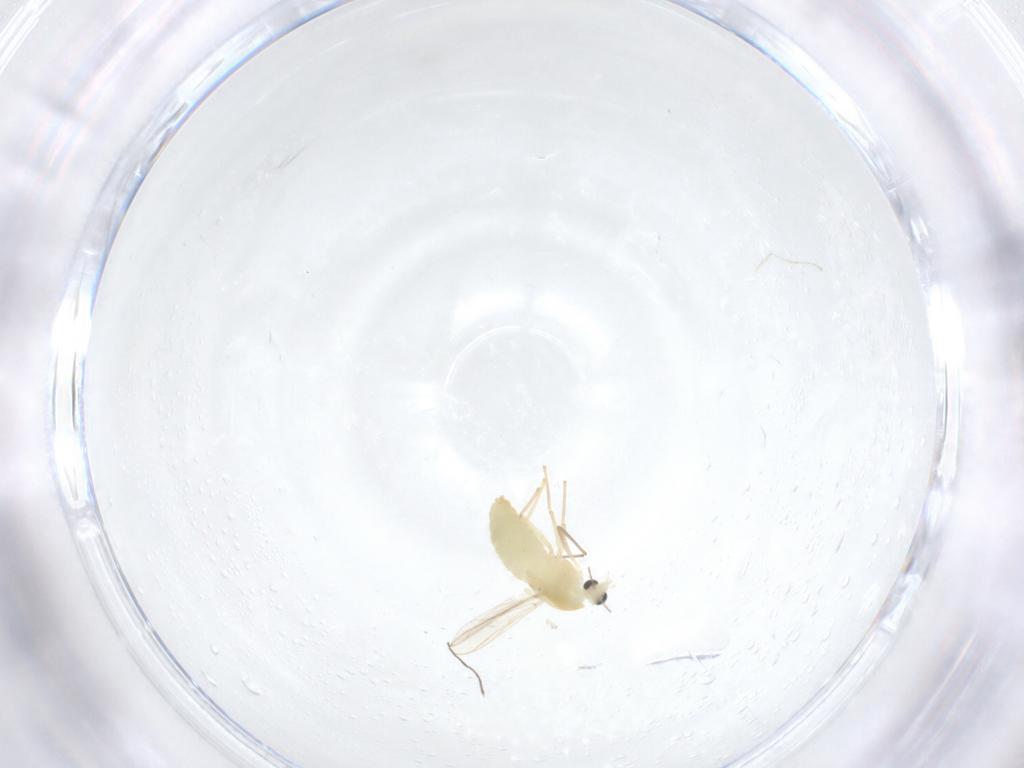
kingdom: Animalia
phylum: Arthropoda
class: Insecta
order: Diptera
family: Chironomidae
